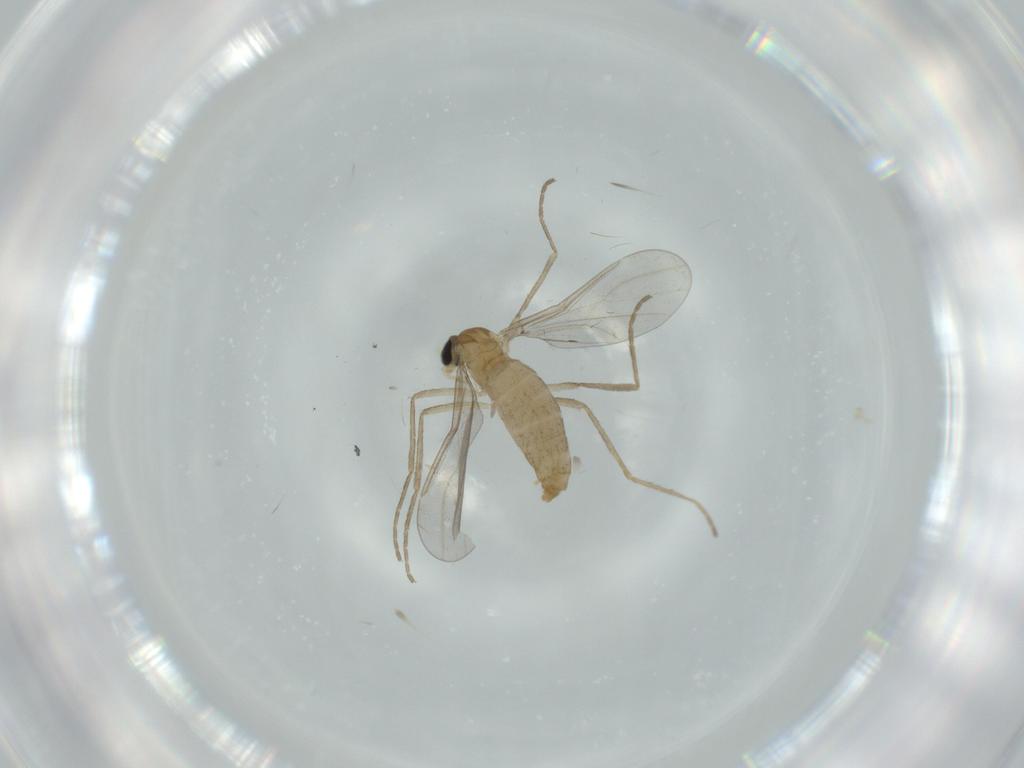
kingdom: Animalia
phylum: Arthropoda
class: Insecta
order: Diptera
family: Cecidomyiidae
